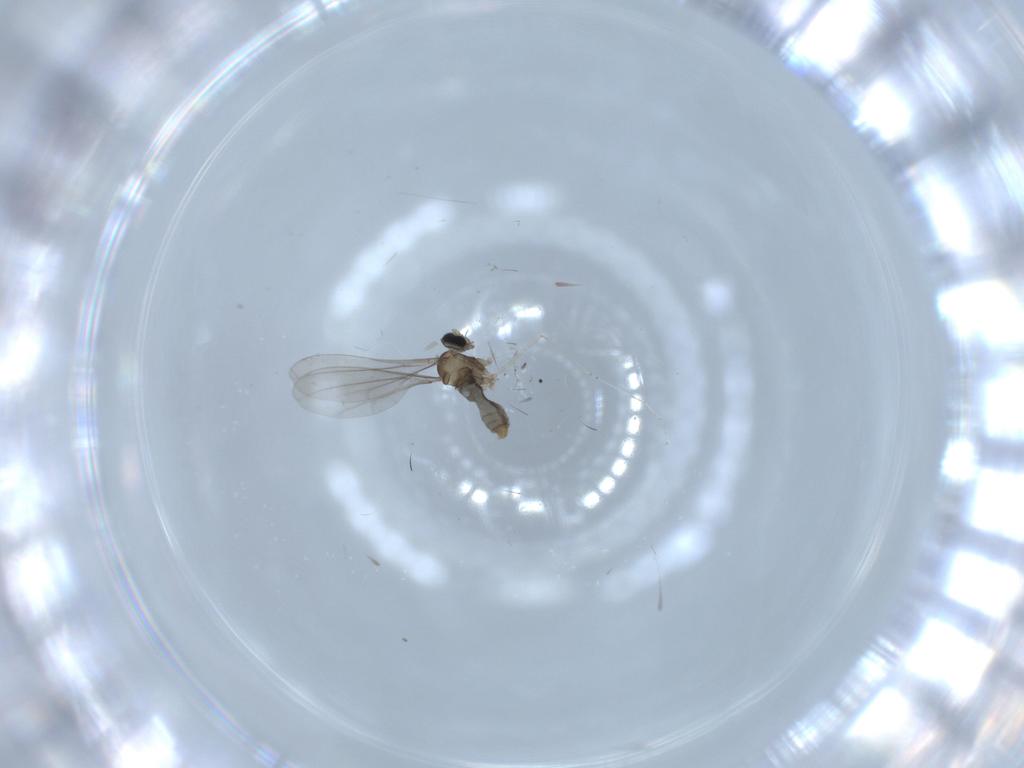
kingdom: Animalia
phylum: Arthropoda
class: Insecta
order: Diptera
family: Cecidomyiidae
